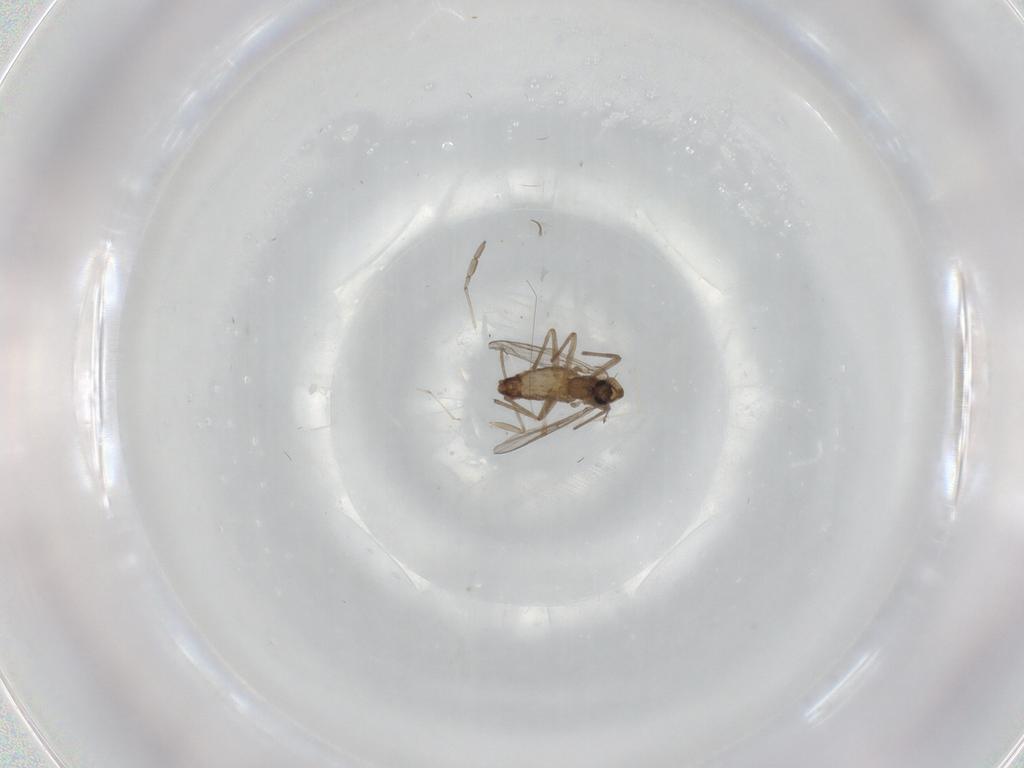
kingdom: Animalia
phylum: Arthropoda
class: Insecta
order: Diptera
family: Chironomidae
